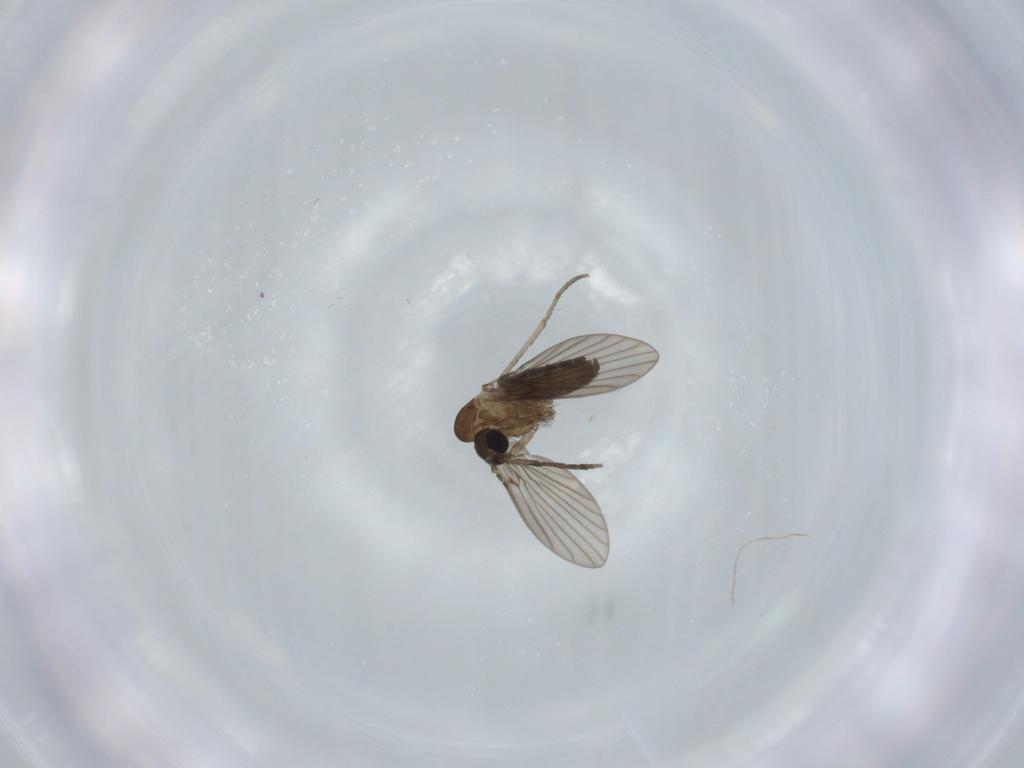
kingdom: Animalia
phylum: Arthropoda
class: Insecta
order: Diptera
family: Psychodidae
